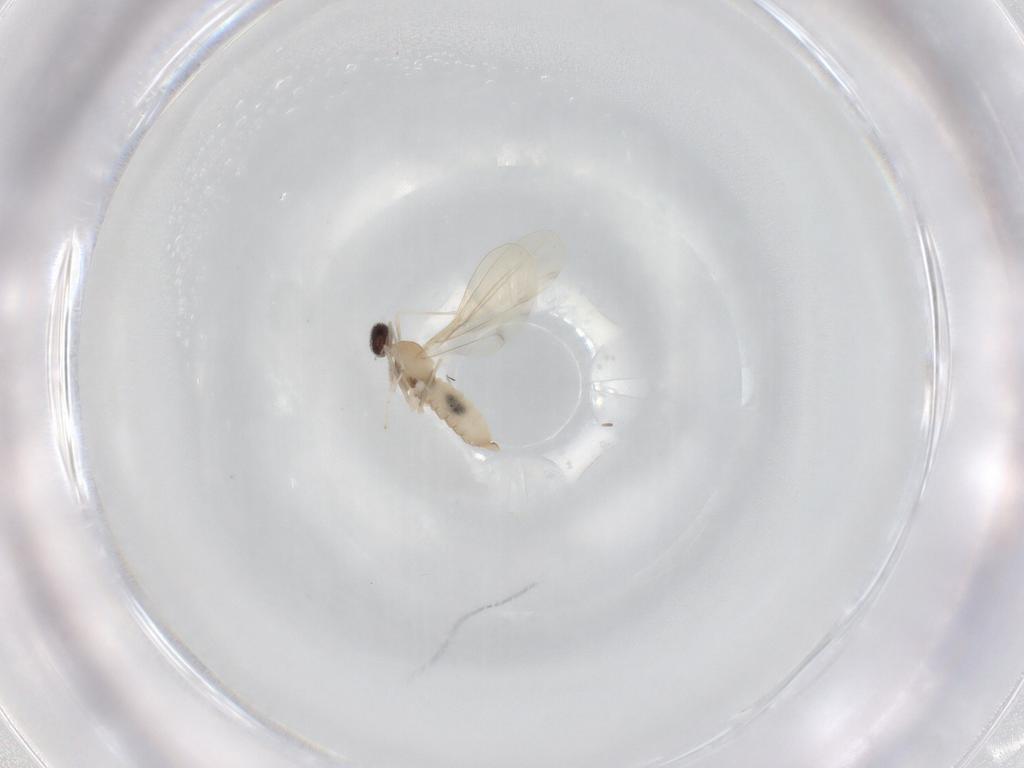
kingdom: Animalia
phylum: Arthropoda
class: Insecta
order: Diptera
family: Cecidomyiidae
